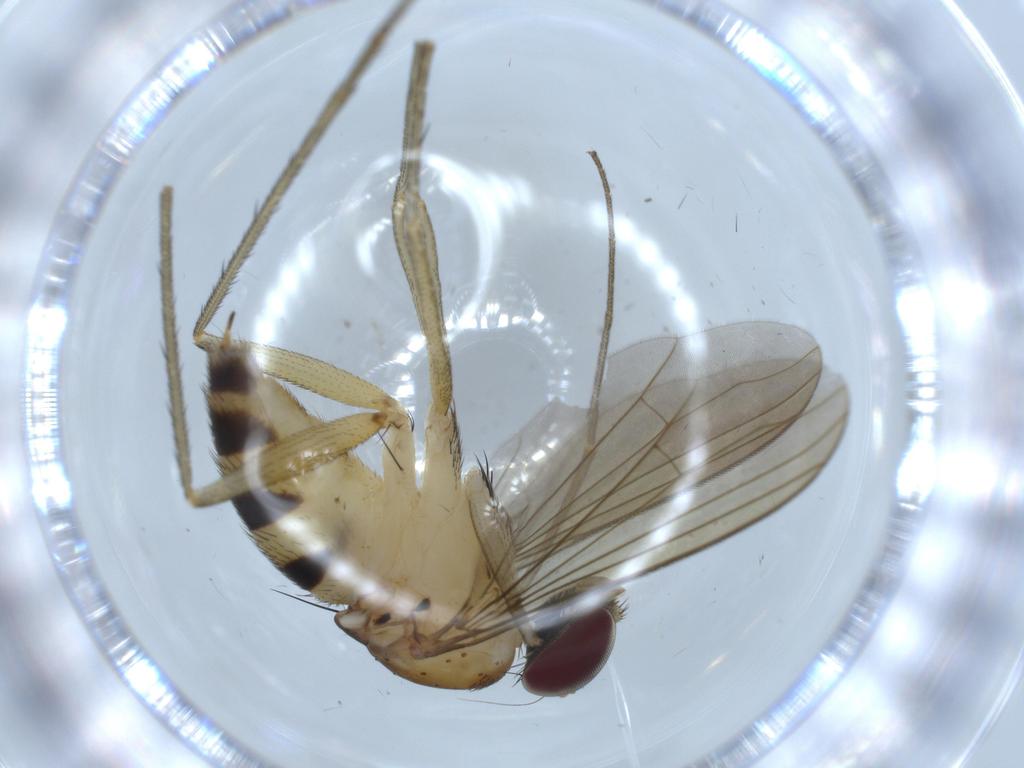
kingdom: Animalia
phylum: Arthropoda
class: Insecta
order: Diptera
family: Dolichopodidae
